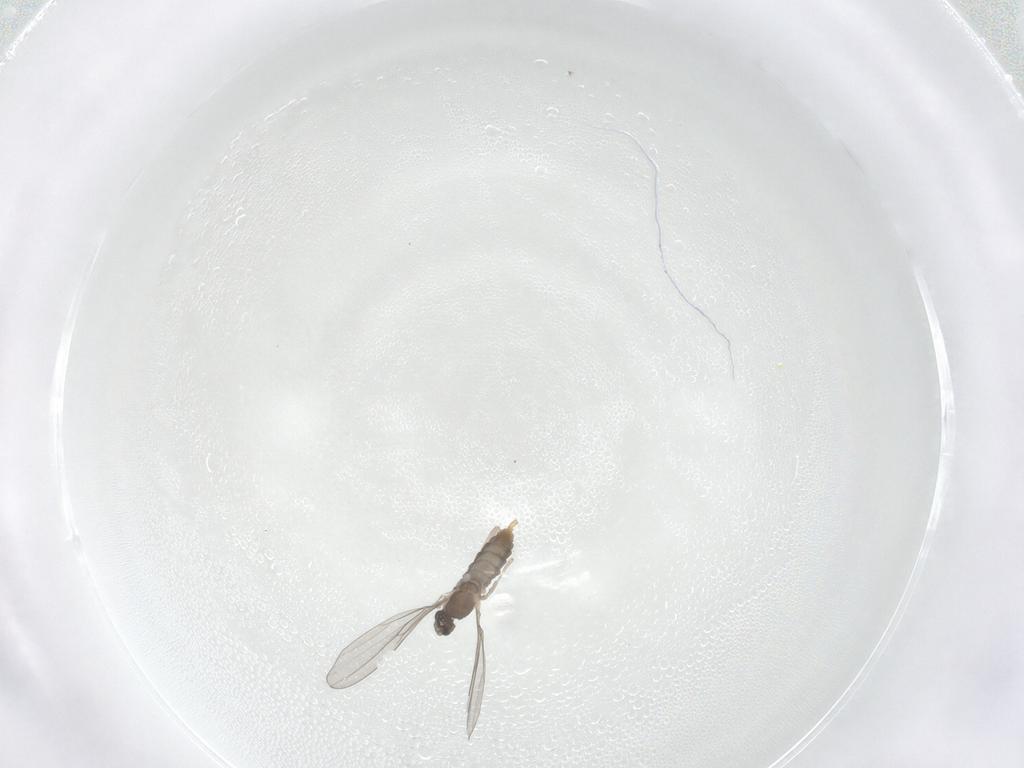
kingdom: Animalia
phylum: Arthropoda
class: Insecta
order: Diptera
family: Cecidomyiidae
